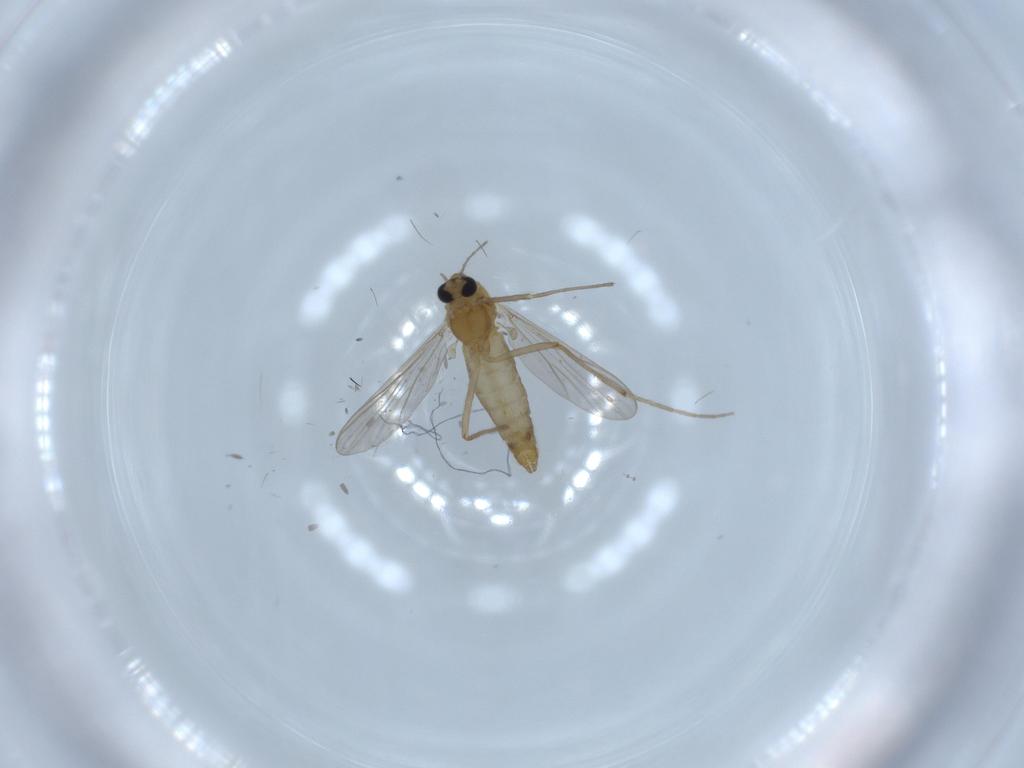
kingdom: Animalia
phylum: Arthropoda
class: Insecta
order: Diptera
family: Chironomidae
